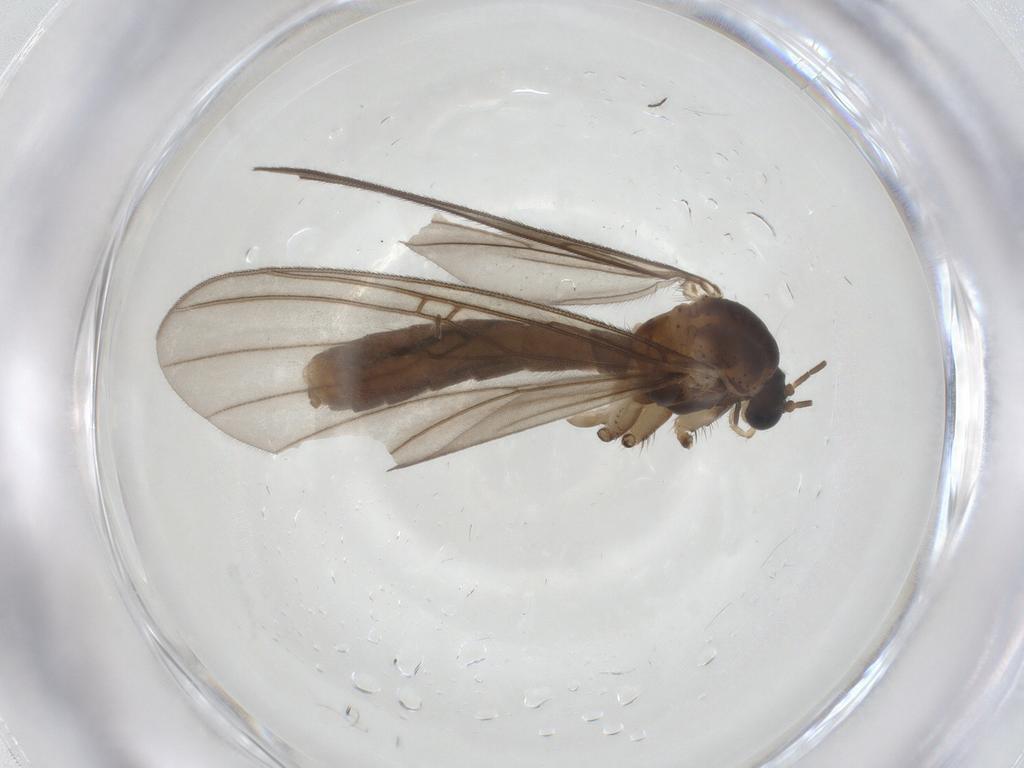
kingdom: Animalia
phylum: Arthropoda
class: Insecta
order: Diptera
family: Mycetophilidae
